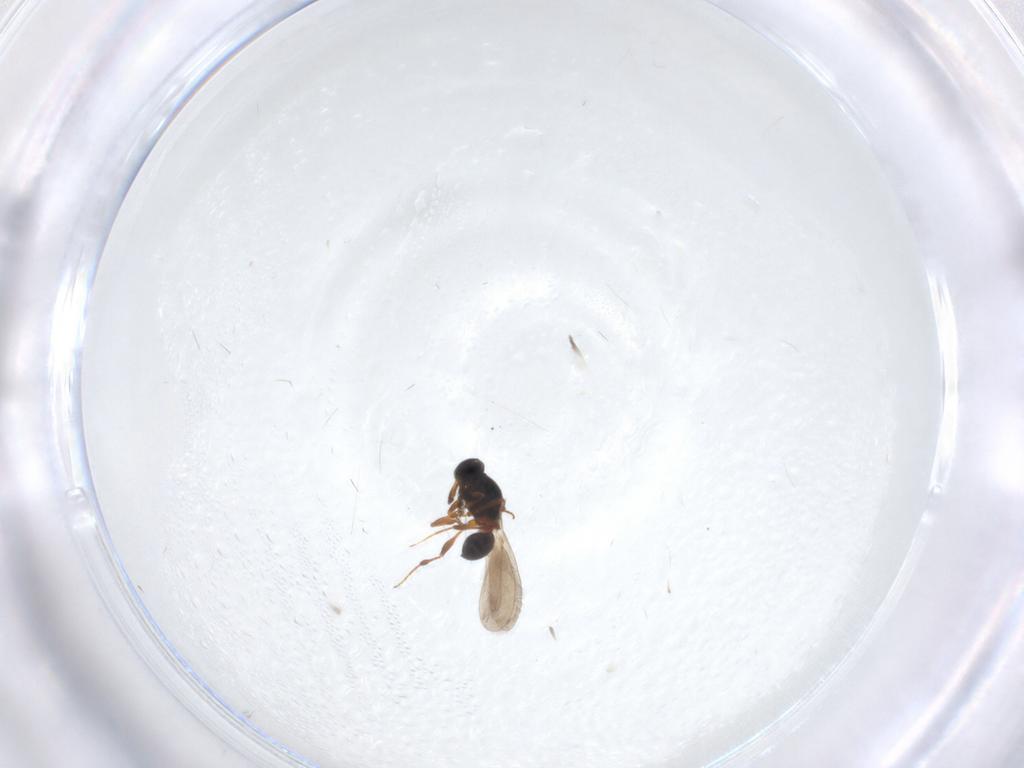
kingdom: Animalia
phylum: Arthropoda
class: Insecta
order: Hymenoptera
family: Platygastridae
